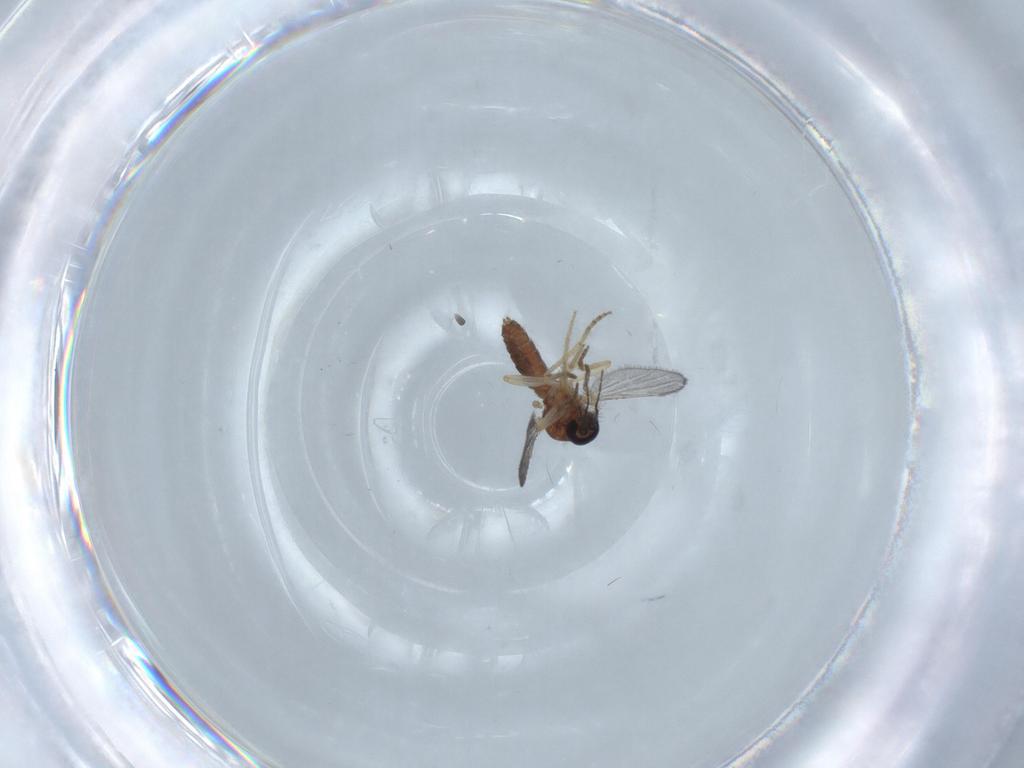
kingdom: Animalia
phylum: Arthropoda
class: Insecta
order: Diptera
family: Ceratopogonidae
